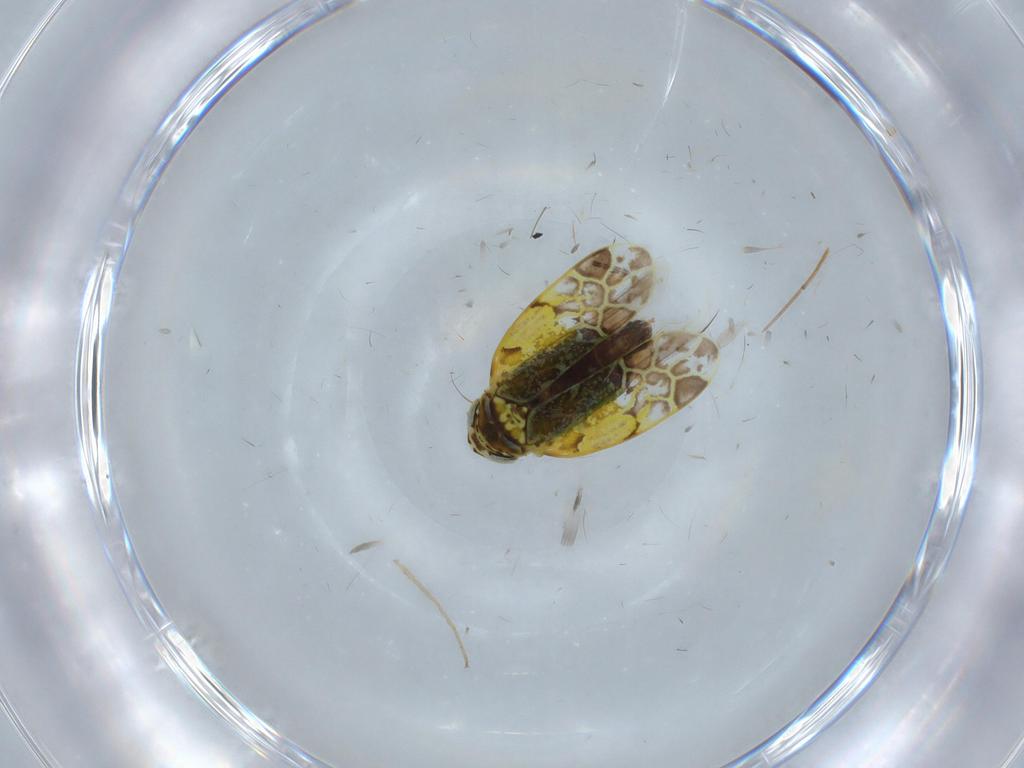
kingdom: Animalia
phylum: Arthropoda
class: Insecta
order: Hemiptera
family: Cicadellidae
